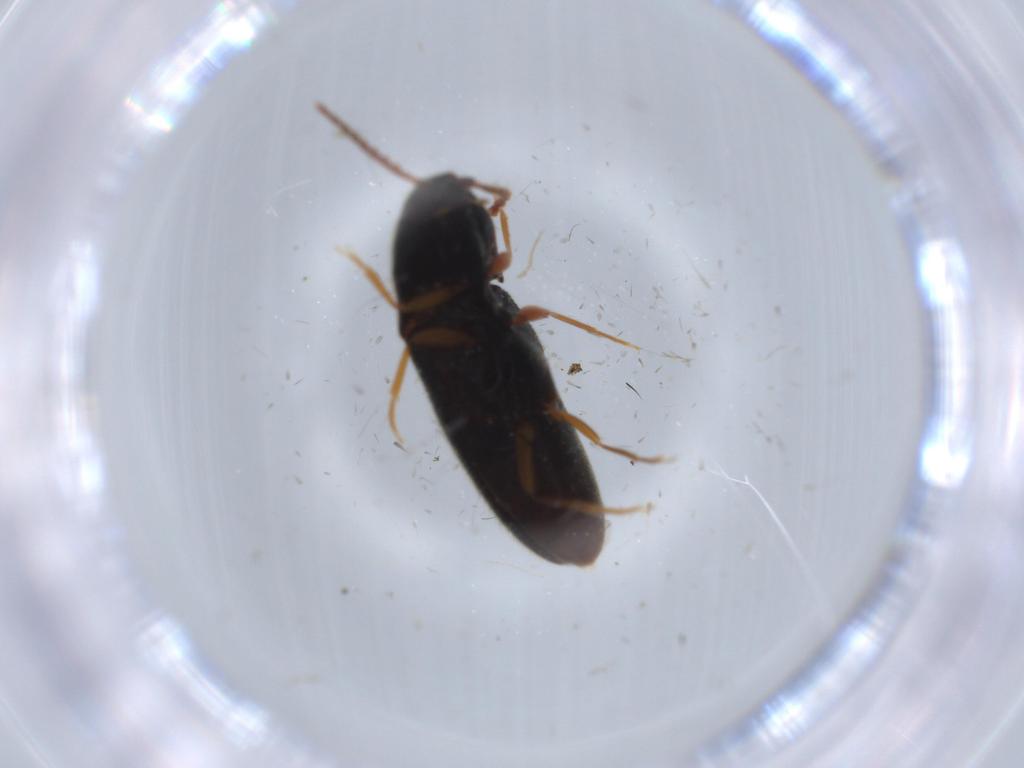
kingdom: Animalia
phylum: Arthropoda
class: Insecta
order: Coleoptera
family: Elateridae
